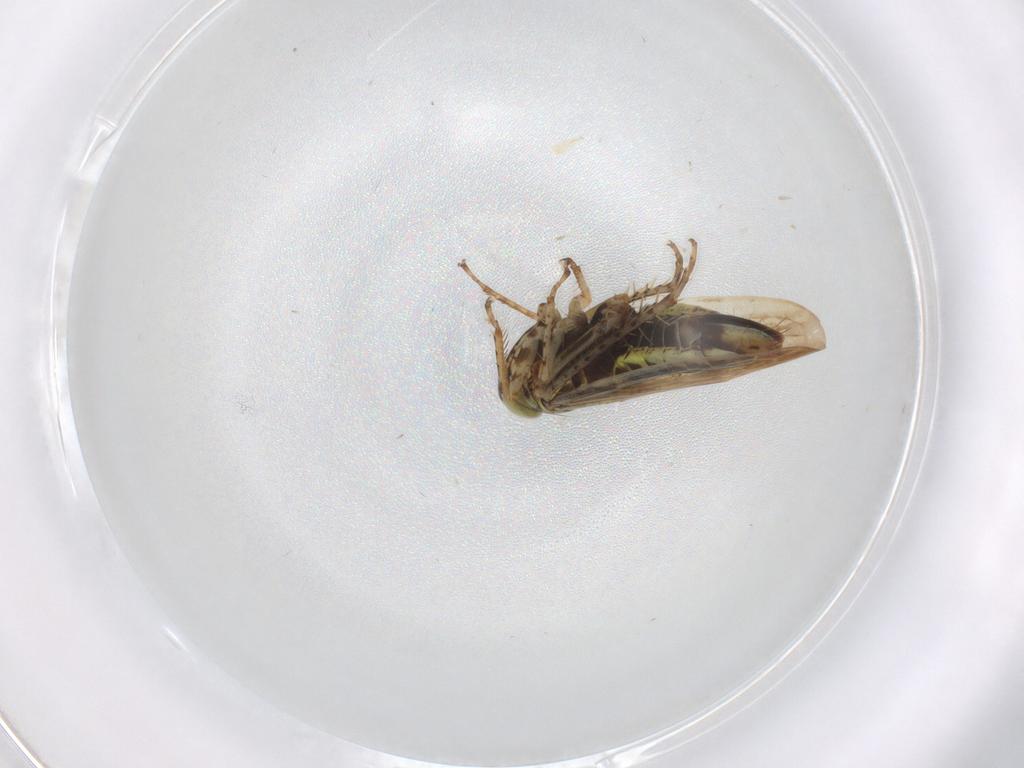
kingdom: Animalia
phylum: Arthropoda
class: Insecta
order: Hemiptera
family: Cicadellidae
